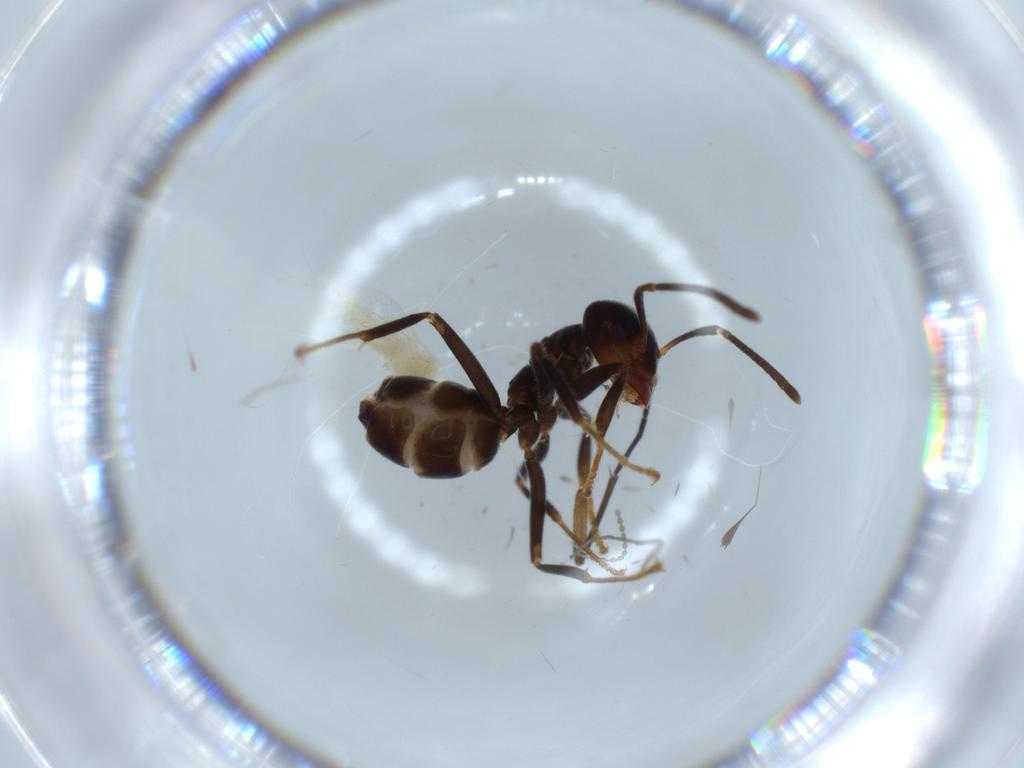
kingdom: Animalia
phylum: Arthropoda
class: Insecta
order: Hymenoptera
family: Formicidae
